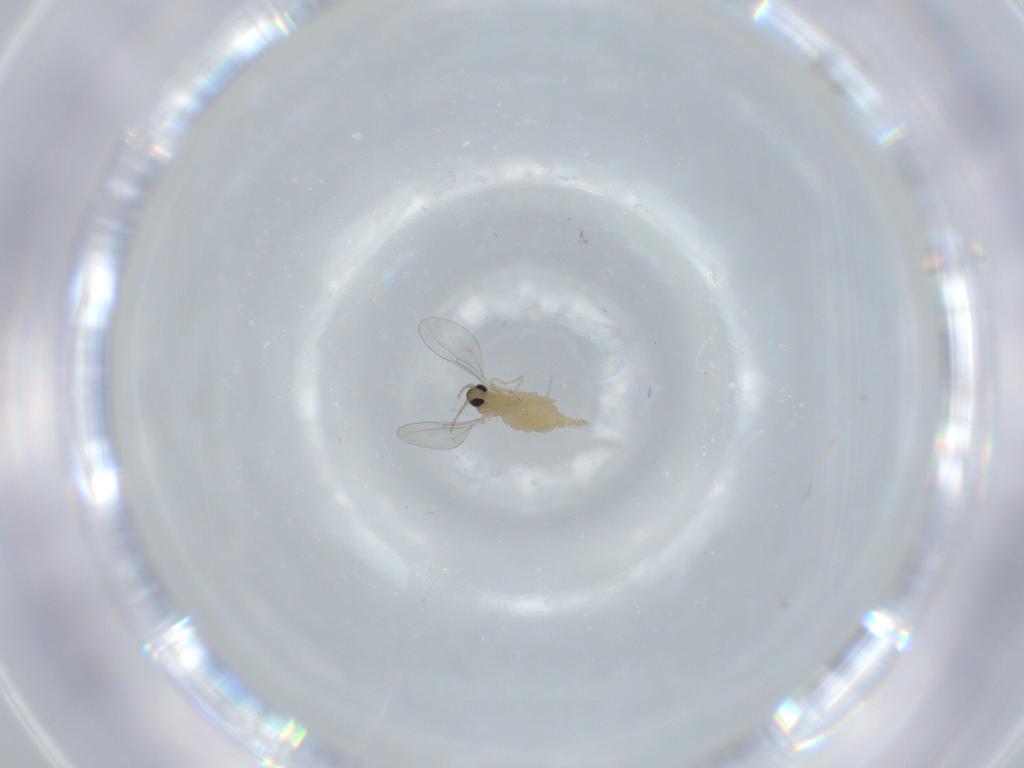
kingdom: Animalia
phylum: Arthropoda
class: Insecta
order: Diptera
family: Cecidomyiidae
